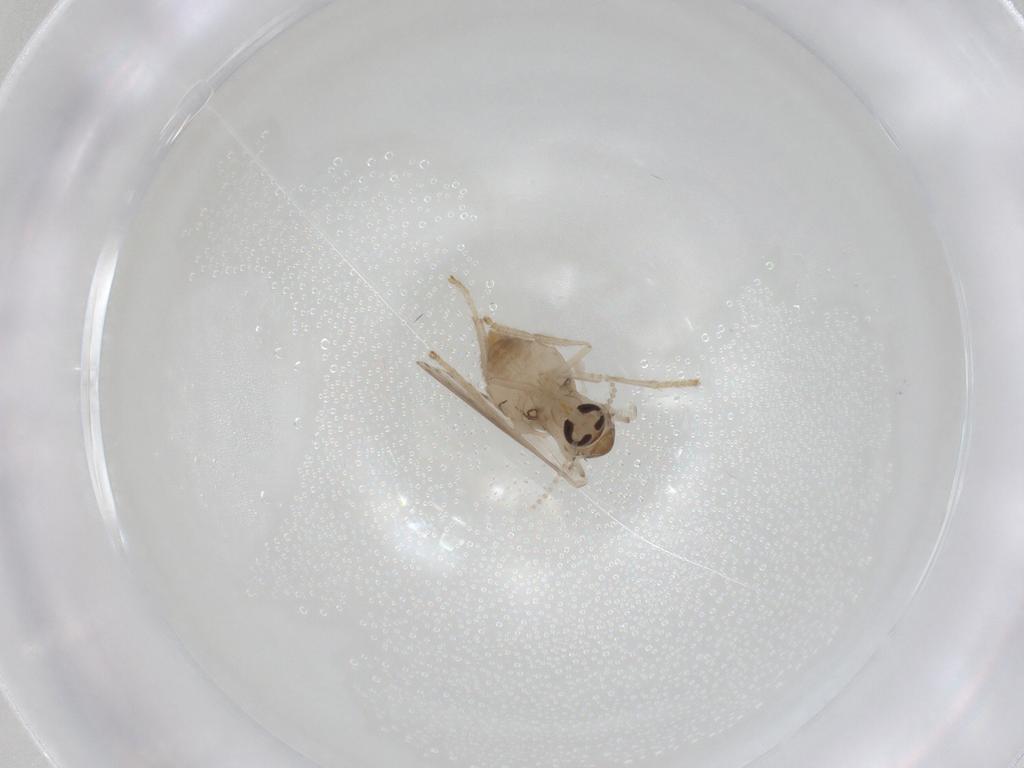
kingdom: Animalia
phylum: Arthropoda
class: Insecta
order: Diptera
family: Psychodidae
